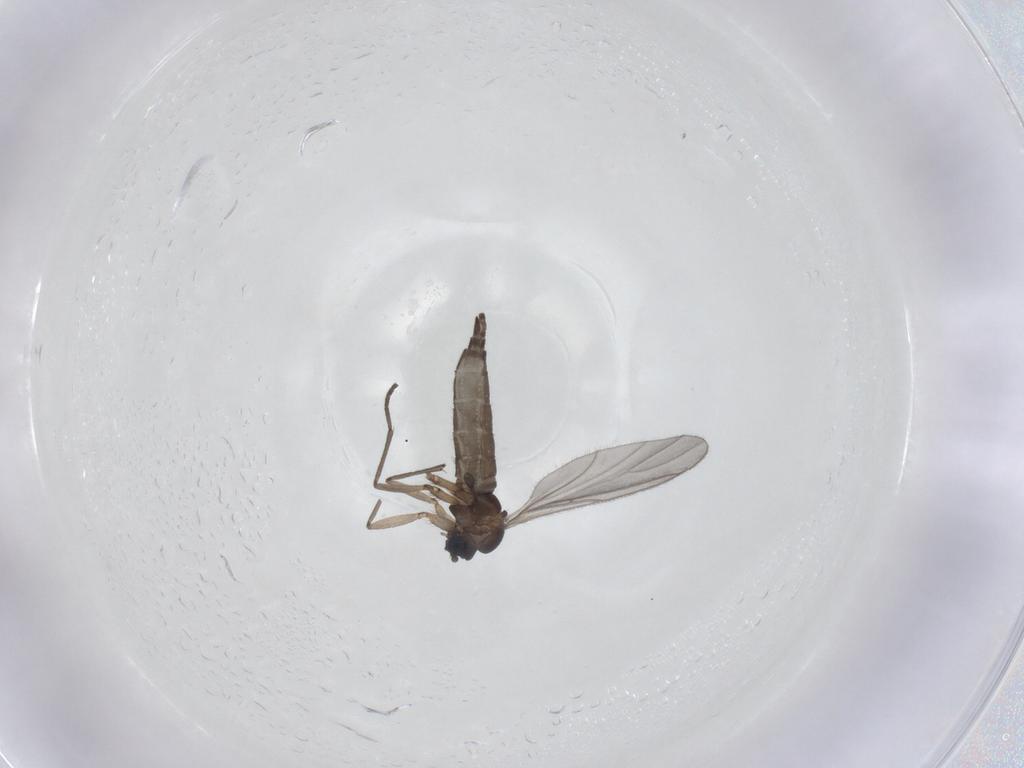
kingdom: Animalia
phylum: Arthropoda
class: Insecta
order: Diptera
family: Sciaridae
